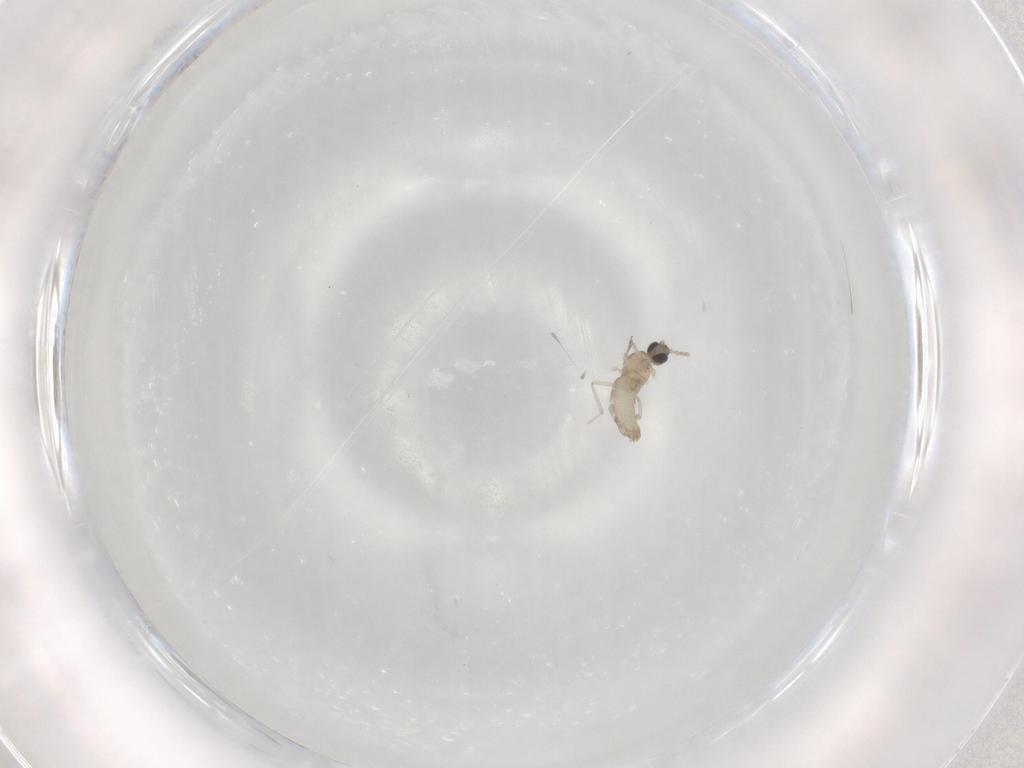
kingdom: Animalia
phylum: Arthropoda
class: Insecta
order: Diptera
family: Cecidomyiidae
